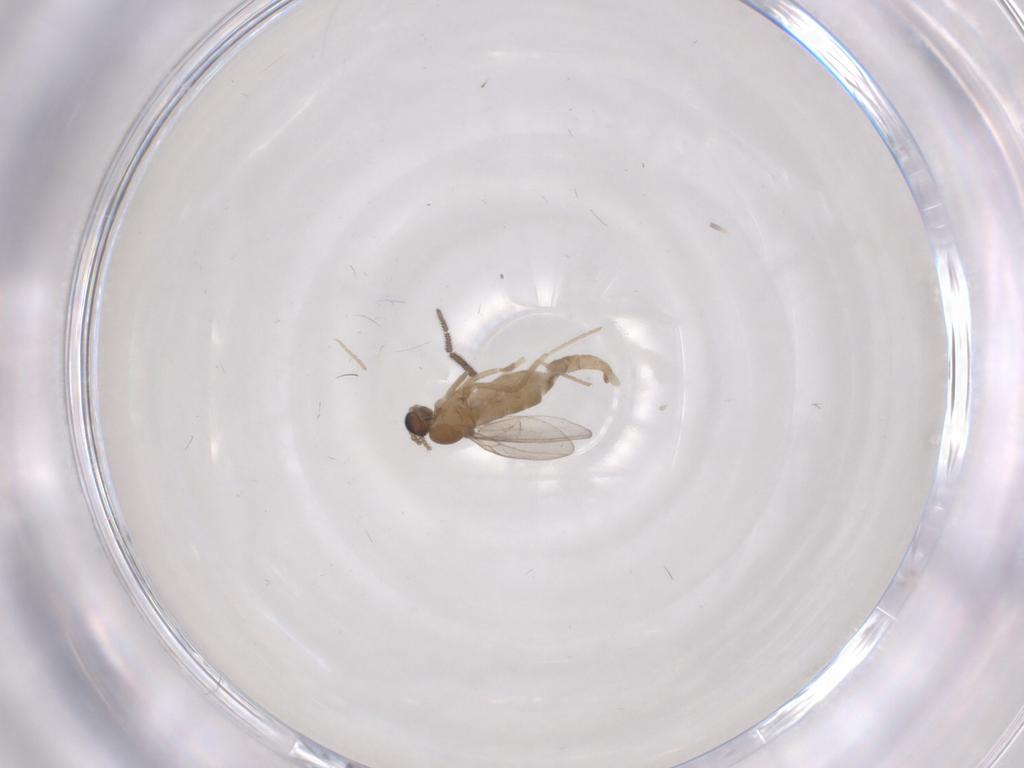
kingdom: Animalia
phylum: Arthropoda
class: Insecta
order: Diptera
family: Cecidomyiidae
